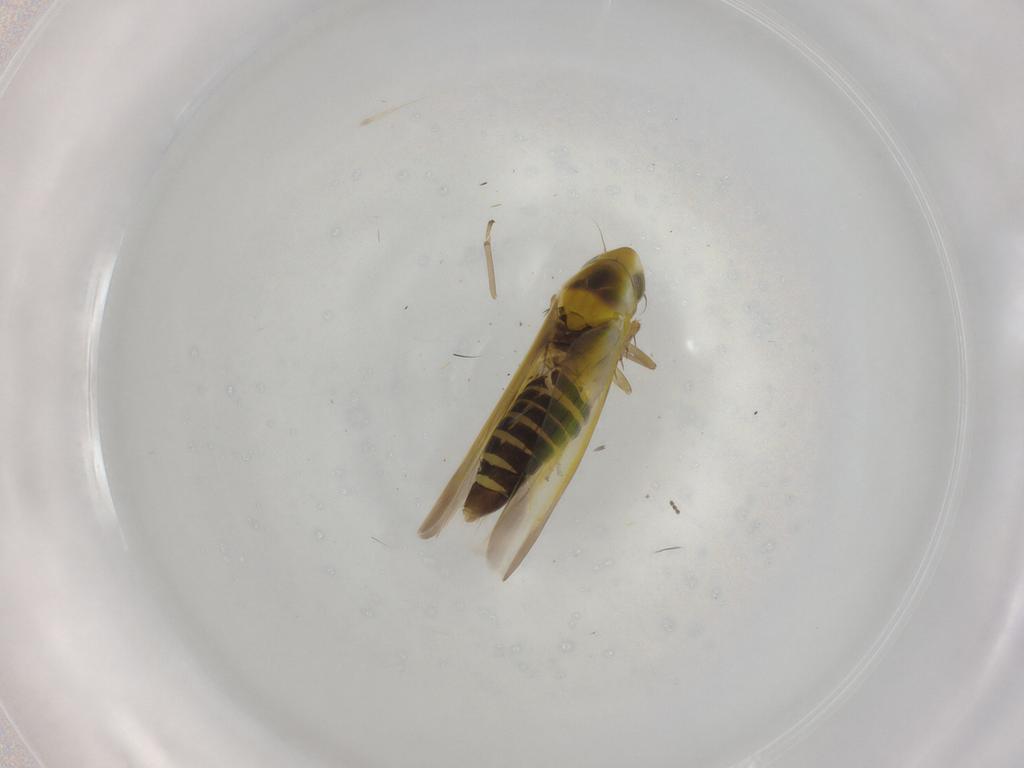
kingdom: Animalia
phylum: Arthropoda
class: Insecta
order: Hemiptera
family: Cicadellidae
